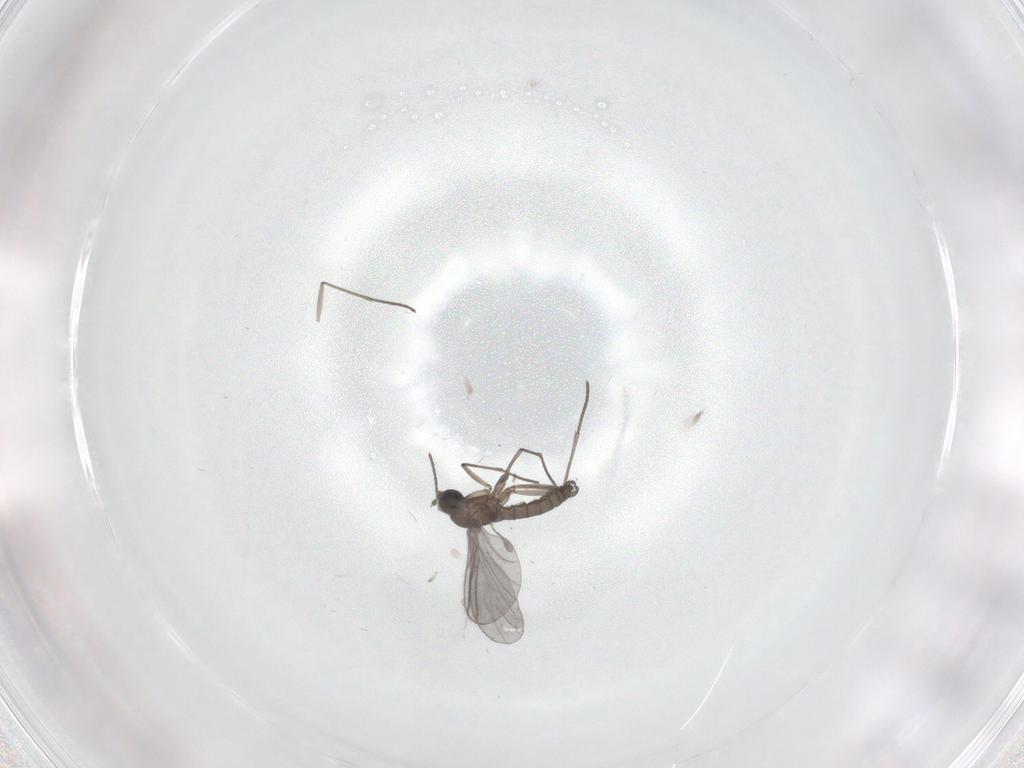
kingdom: Animalia
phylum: Arthropoda
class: Insecta
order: Diptera
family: Cecidomyiidae
